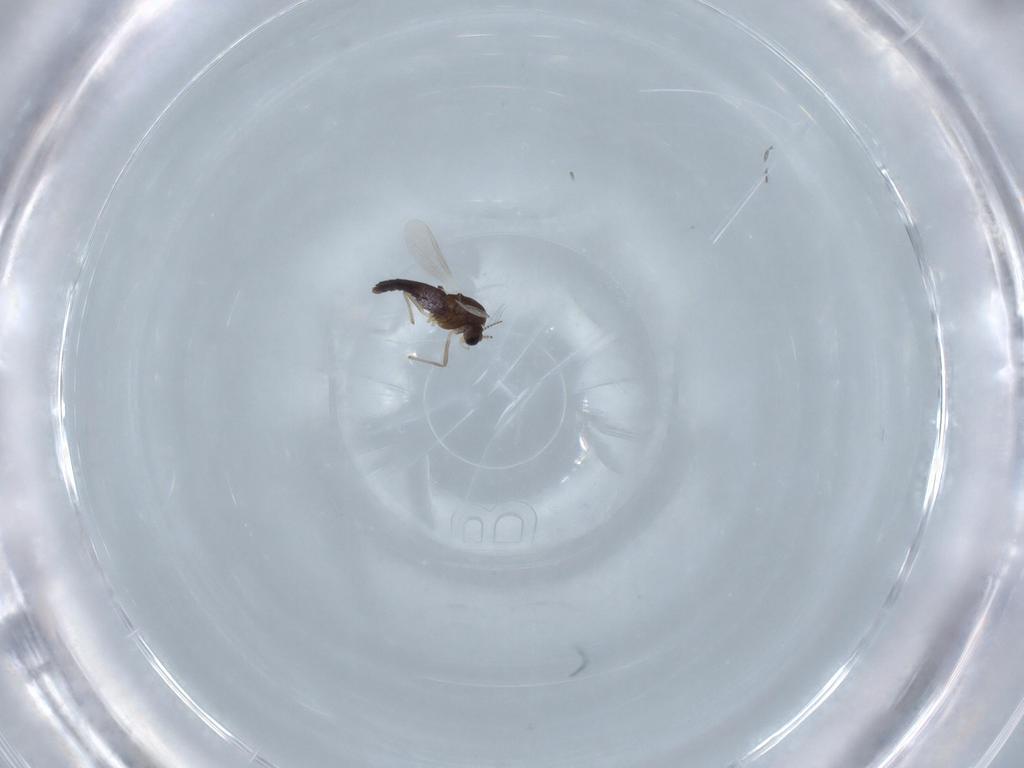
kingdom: Animalia
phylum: Arthropoda
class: Insecta
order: Diptera
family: Chironomidae
